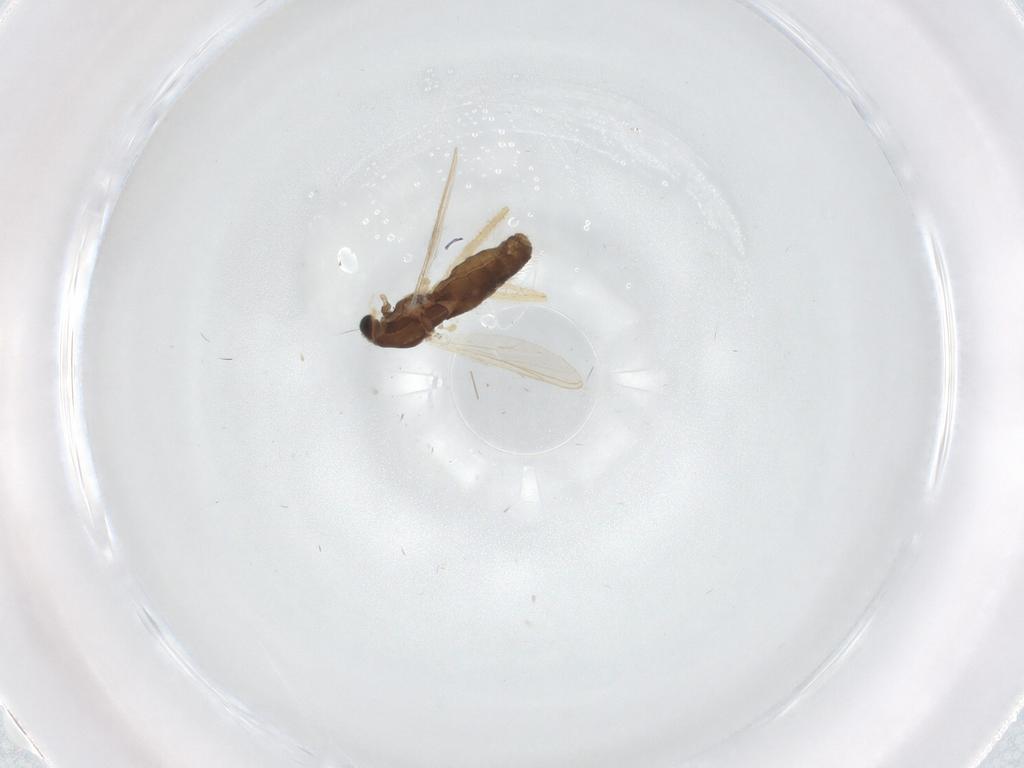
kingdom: Animalia
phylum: Arthropoda
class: Insecta
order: Diptera
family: Chironomidae
